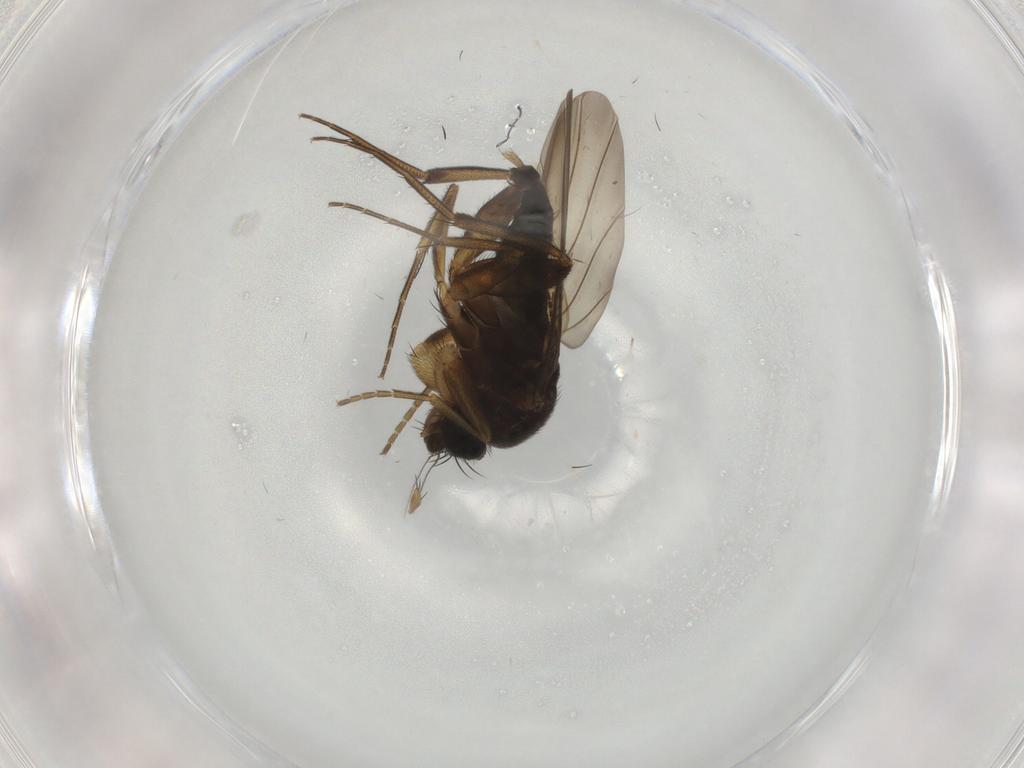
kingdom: Animalia
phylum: Arthropoda
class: Insecta
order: Diptera
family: Phoridae
